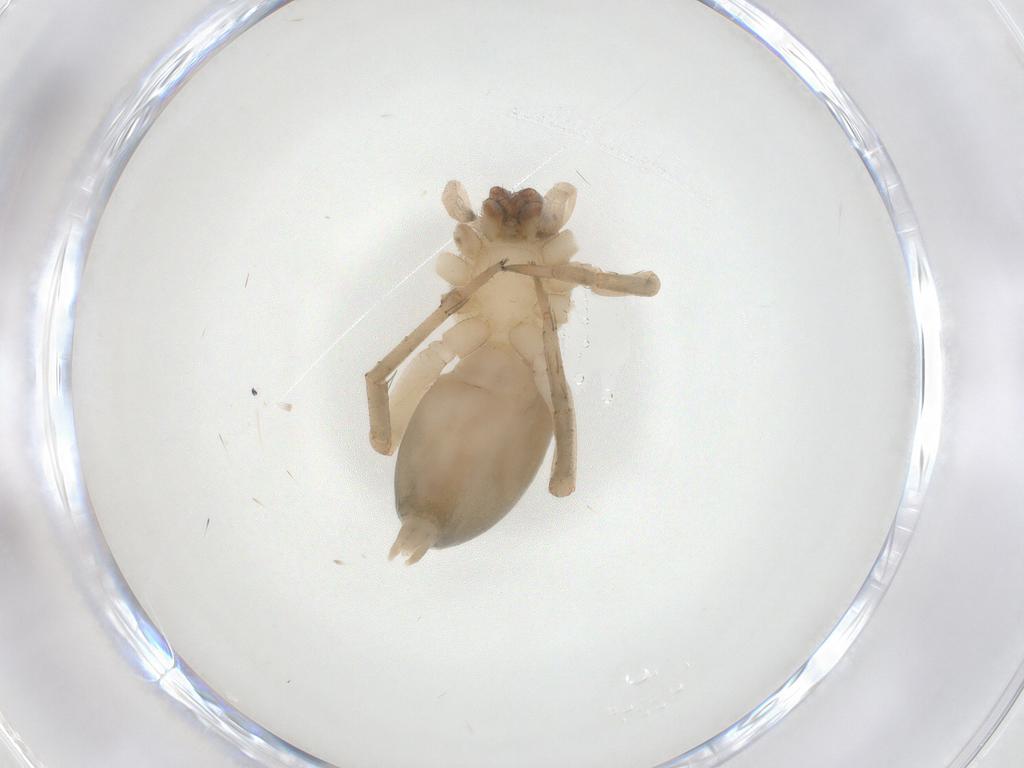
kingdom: Animalia
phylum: Arthropoda
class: Arachnida
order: Araneae
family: Amaurobiidae
